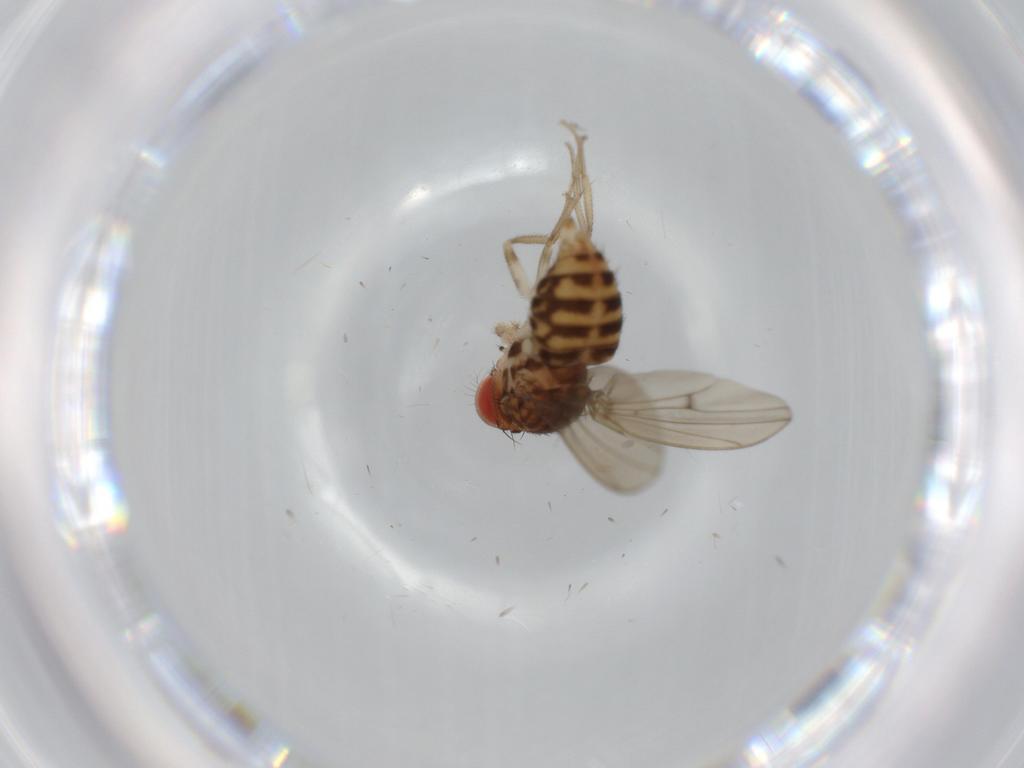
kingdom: Animalia
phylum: Arthropoda
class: Insecta
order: Diptera
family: Drosophilidae
